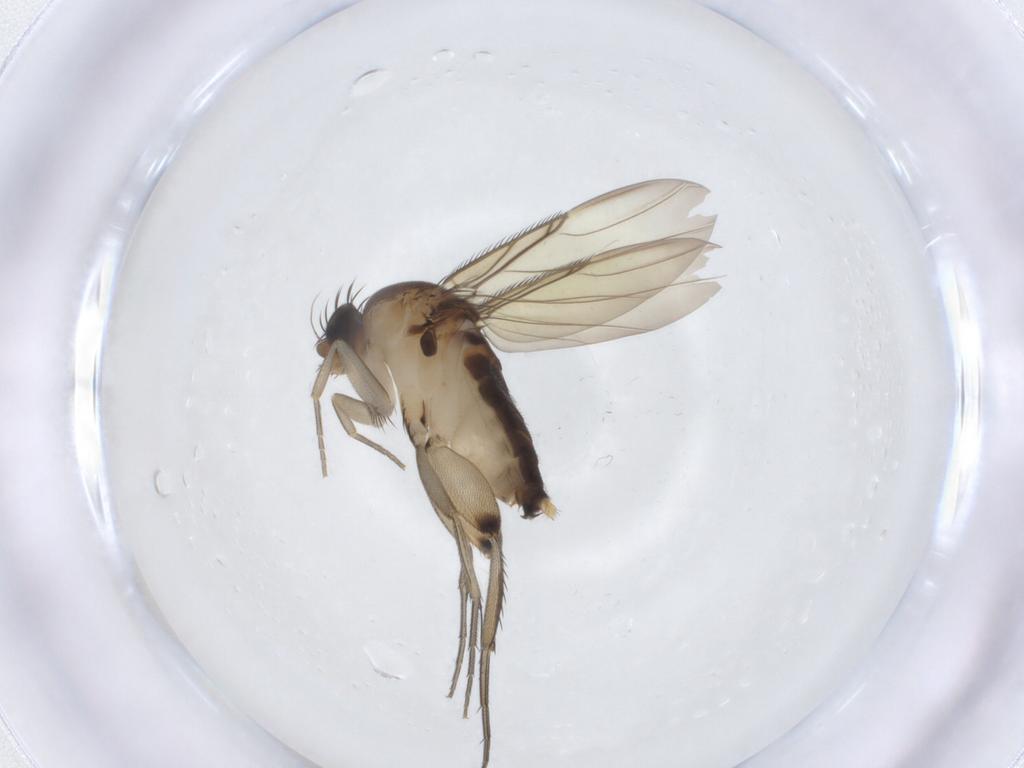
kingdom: Animalia
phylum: Arthropoda
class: Insecta
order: Diptera
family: Phoridae
